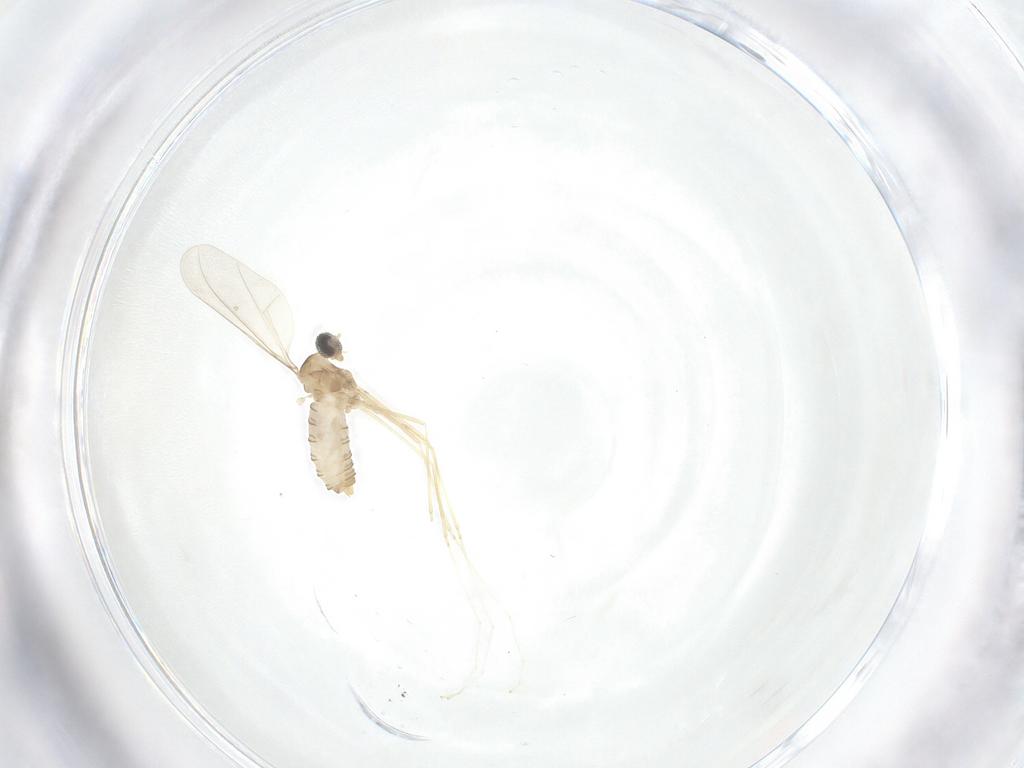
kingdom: Animalia
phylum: Arthropoda
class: Insecta
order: Diptera
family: Cecidomyiidae
